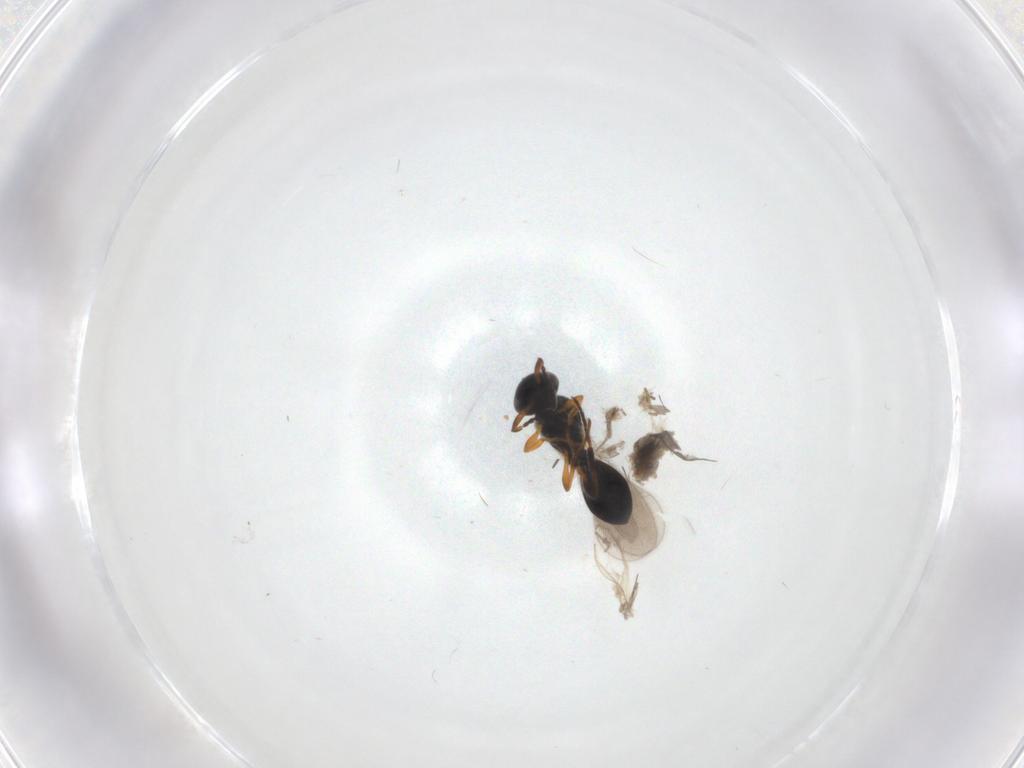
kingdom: Animalia
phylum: Arthropoda
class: Insecta
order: Hymenoptera
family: Platygastridae
